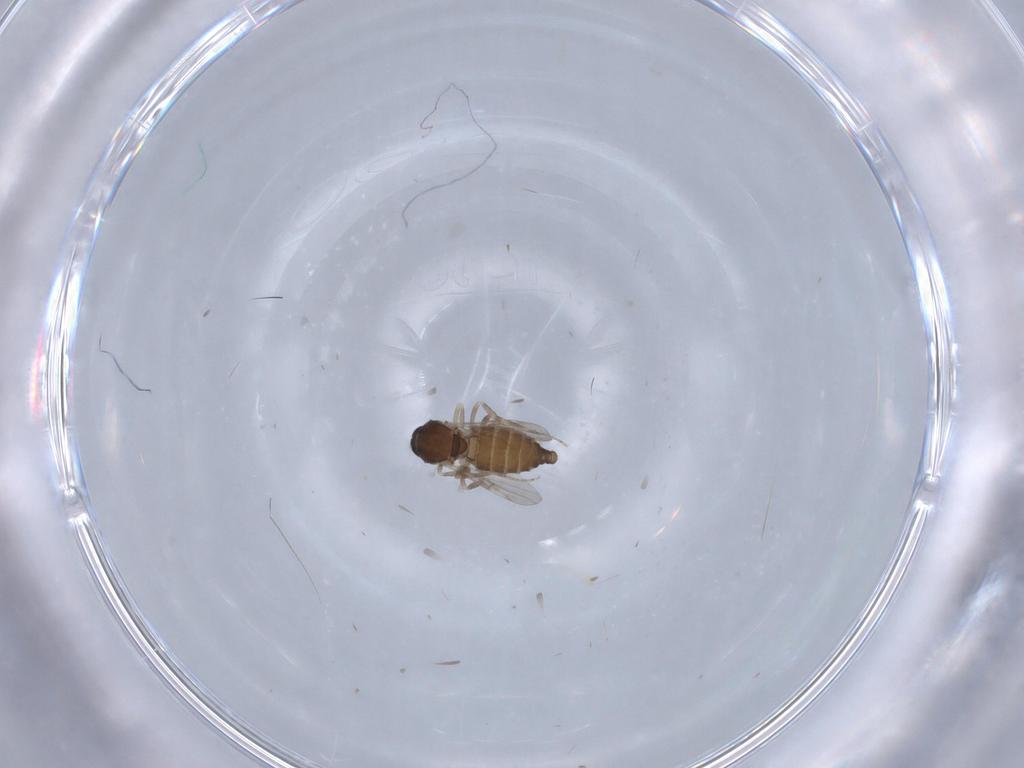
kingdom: Animalia
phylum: Arthropoda
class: Insecta
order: Diptera
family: Ceratopogonidae
